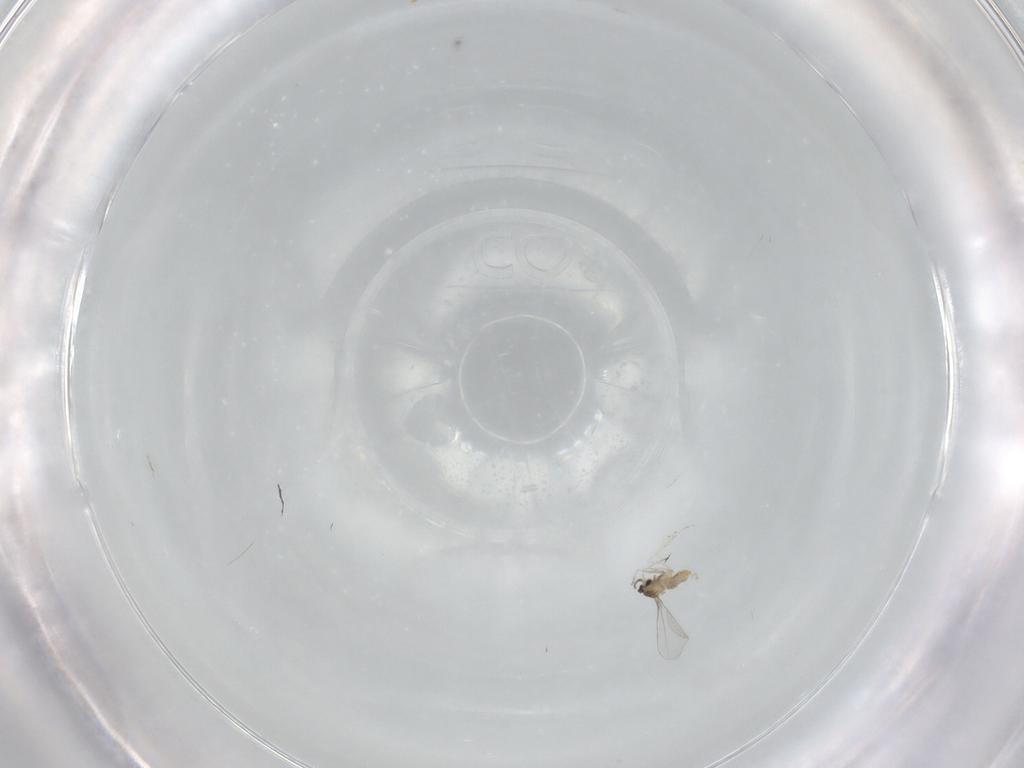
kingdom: Animalia
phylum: Arthropoda
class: Insecta
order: Diptera
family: Cecidomyiidae
